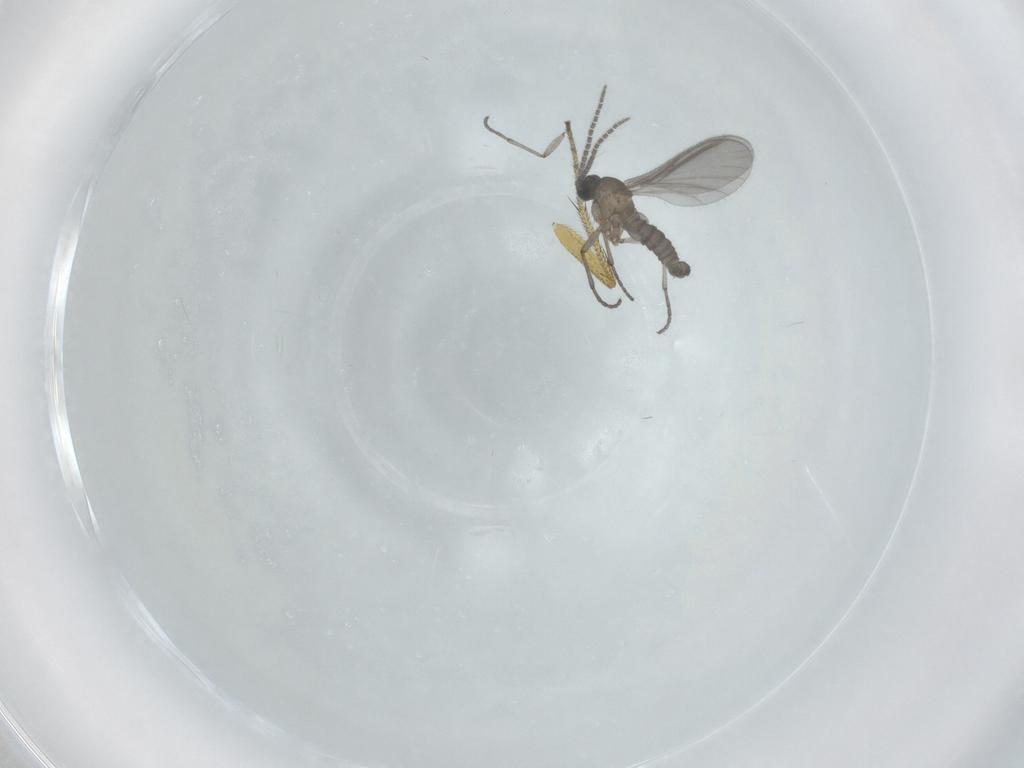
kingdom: Animalia
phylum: Arthropoda
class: Insecta
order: Diptera
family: Sciaridae
